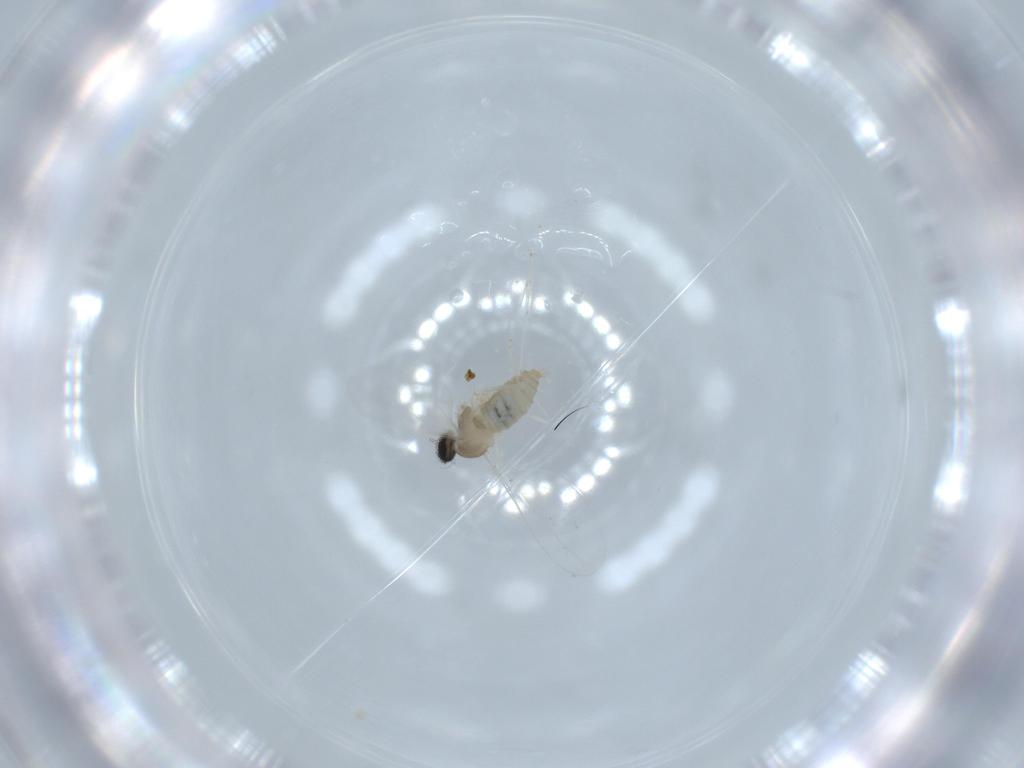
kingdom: Animalia
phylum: Arthropoda
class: Insecta
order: Diptera
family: Cecidomyiidae
